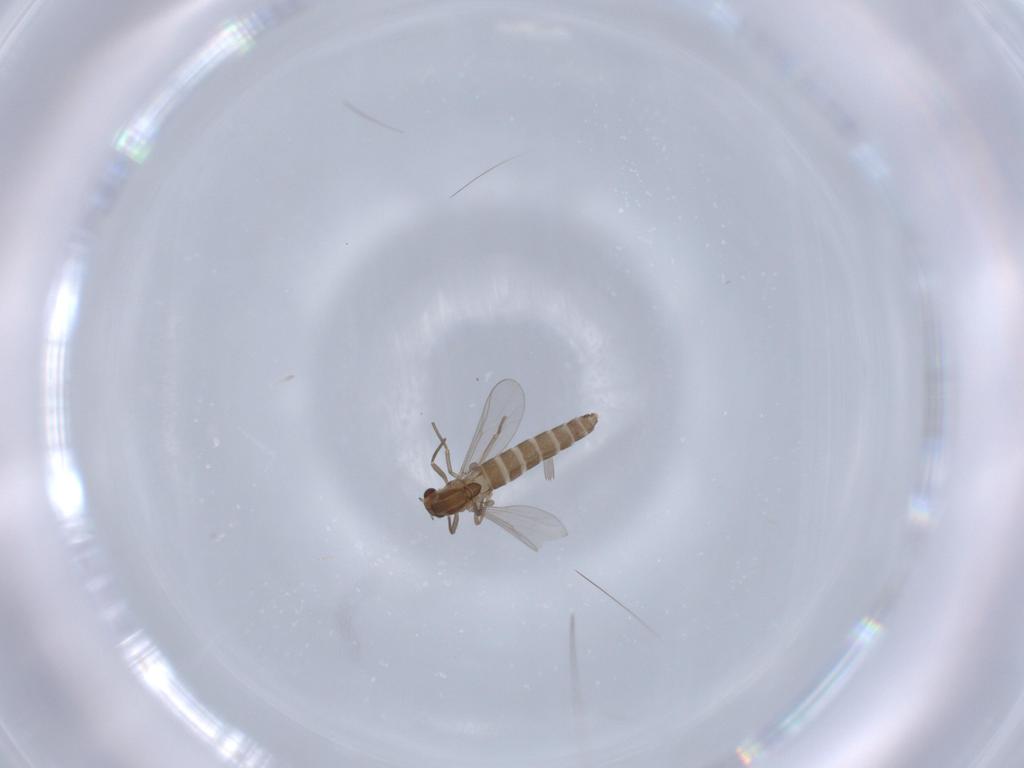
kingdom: Animalia
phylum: Arthropoda
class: Insecta
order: Diptera
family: Chironomidae
